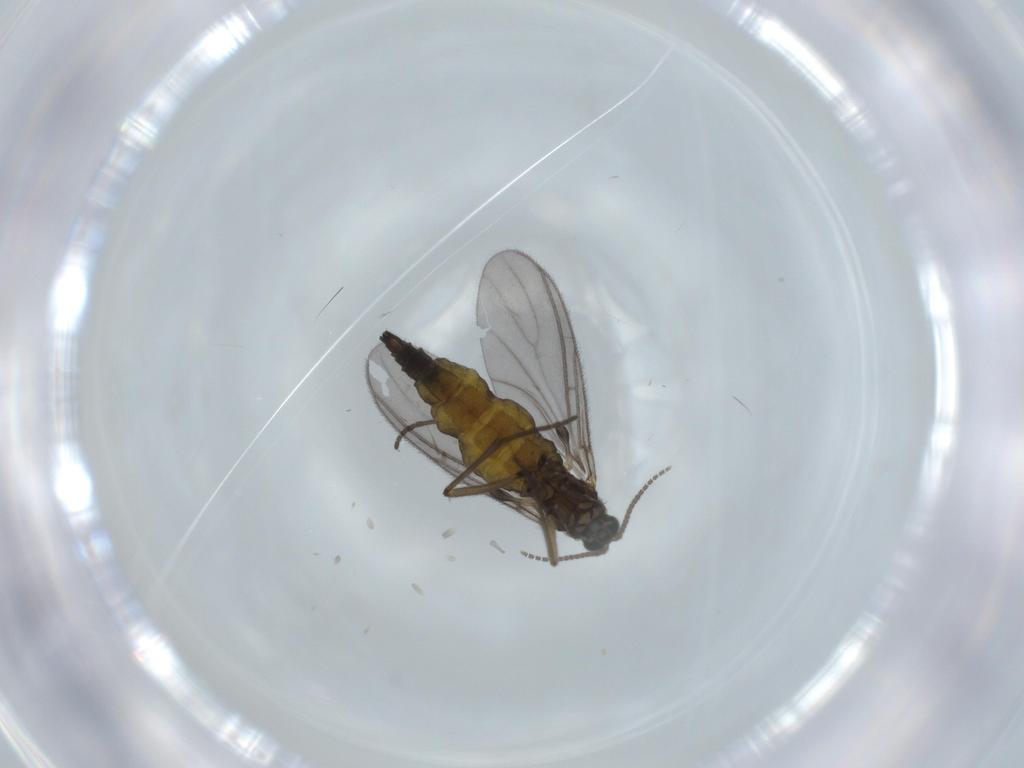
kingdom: Animalia
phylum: Arthropoda
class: Insecta
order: Diptera
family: Sciaridae
